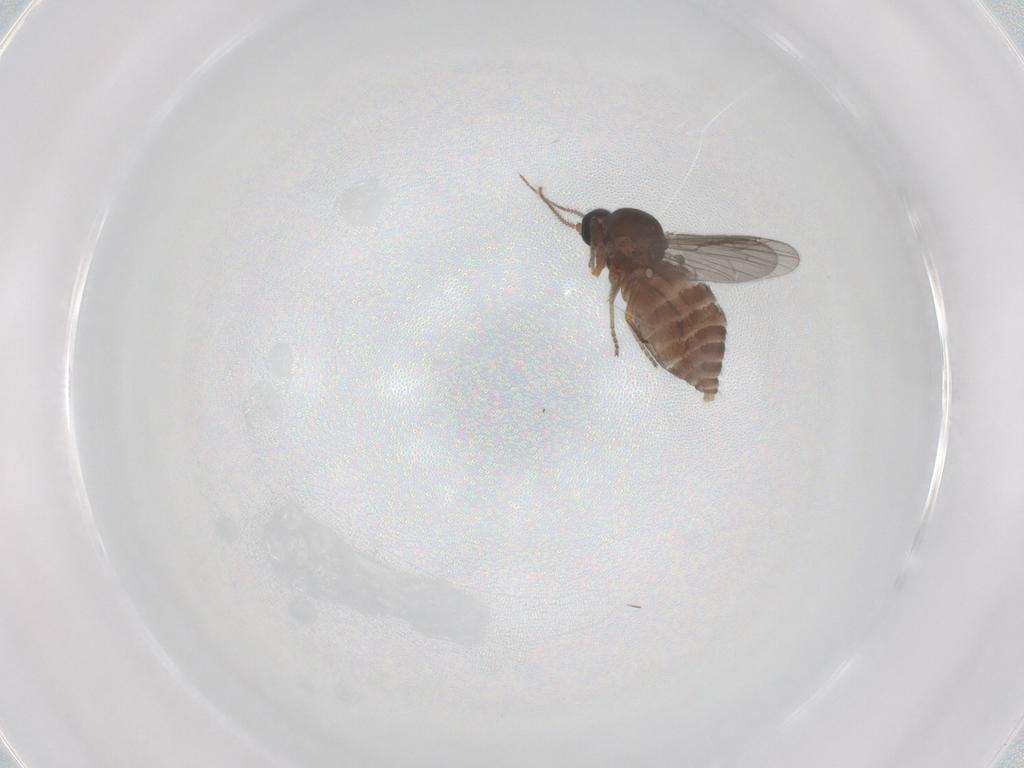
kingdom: Animalia
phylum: Arthropoda
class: Insecta
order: Diptera
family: Ceratopogonidae
